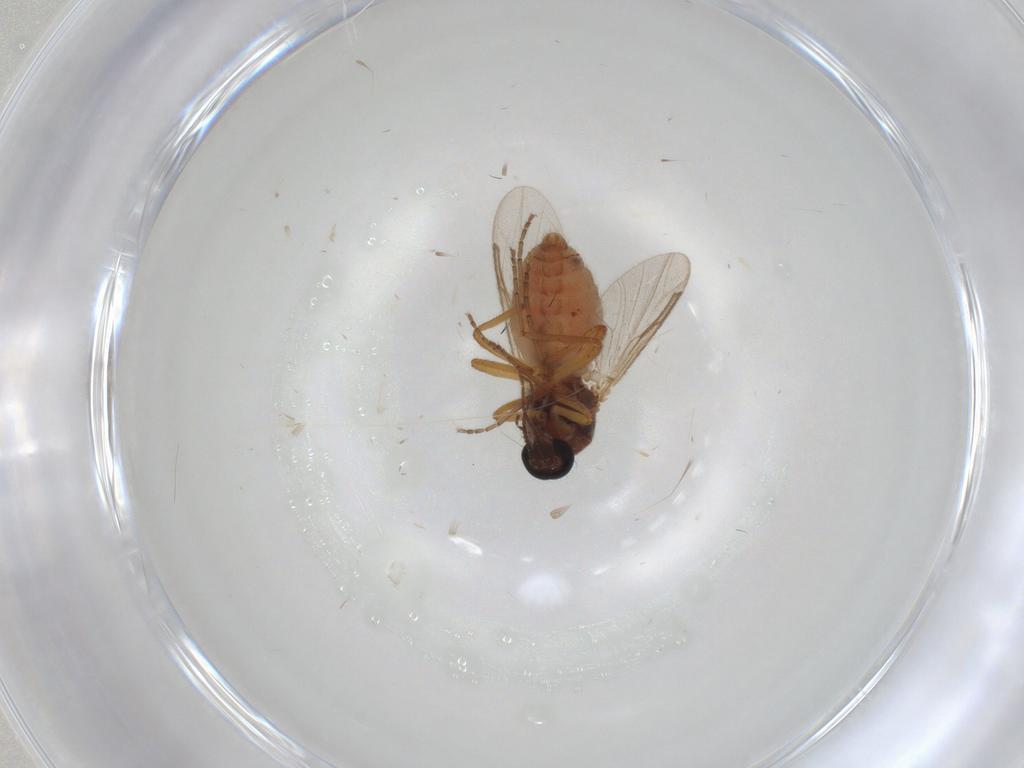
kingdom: Animalia
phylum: Arthropoda
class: Insecta
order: Diptera
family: Ceratopogonidae
